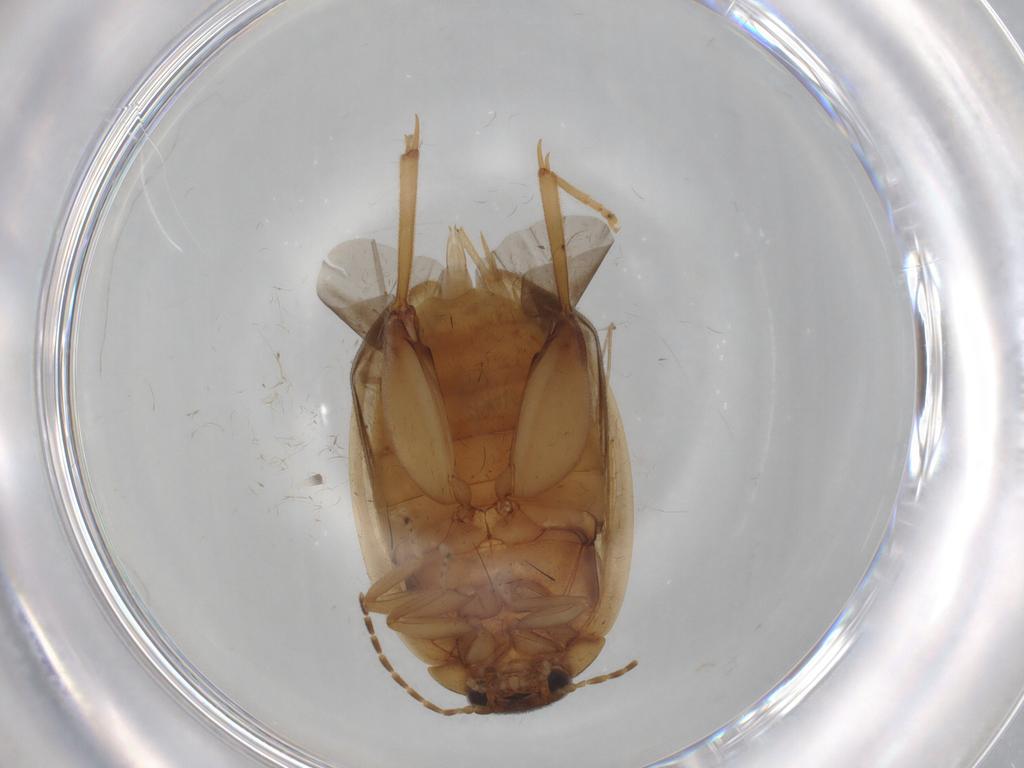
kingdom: Animalia
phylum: Arthropoda
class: Insecta
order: Coleoptera
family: Scirtidae
